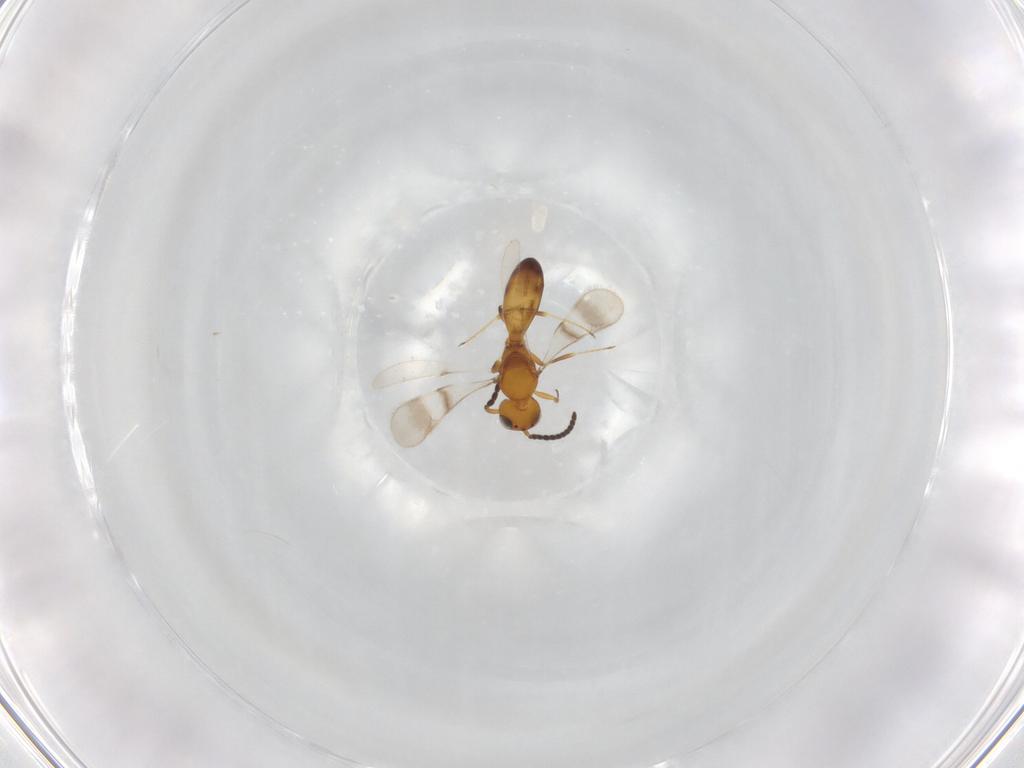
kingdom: Animalia
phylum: Arthropoda
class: Insecta
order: Hymenoptera
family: Scelionidae
